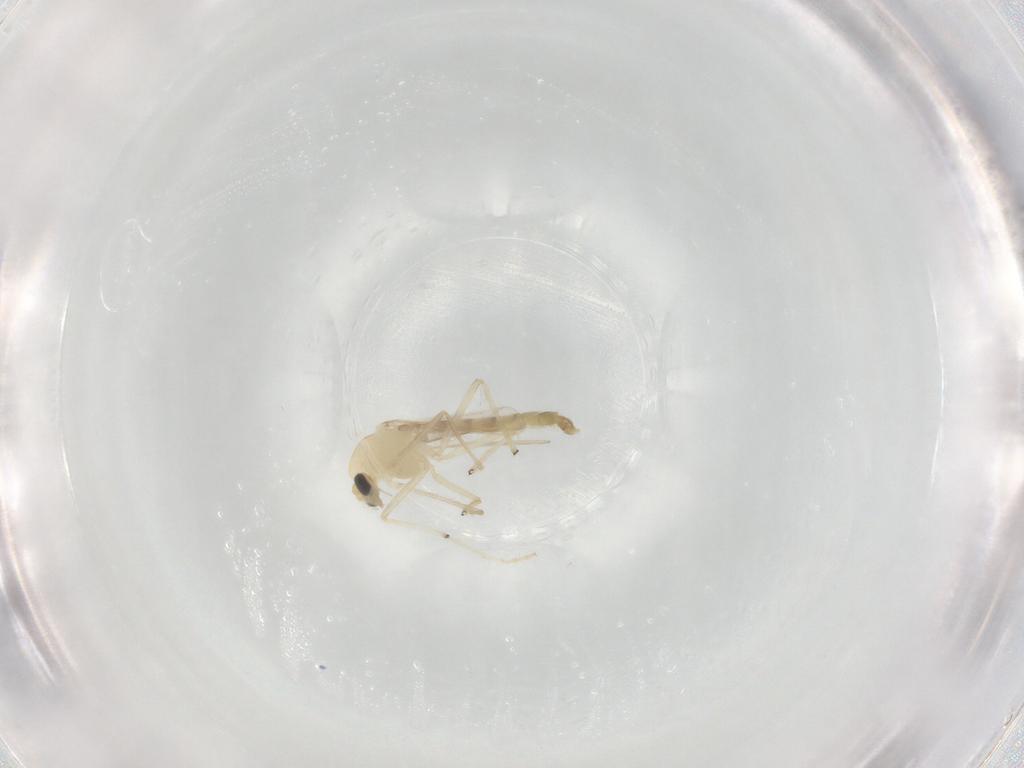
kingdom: Animalia
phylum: Arthropoda
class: Insecta
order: Diptera
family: Chironomidae
